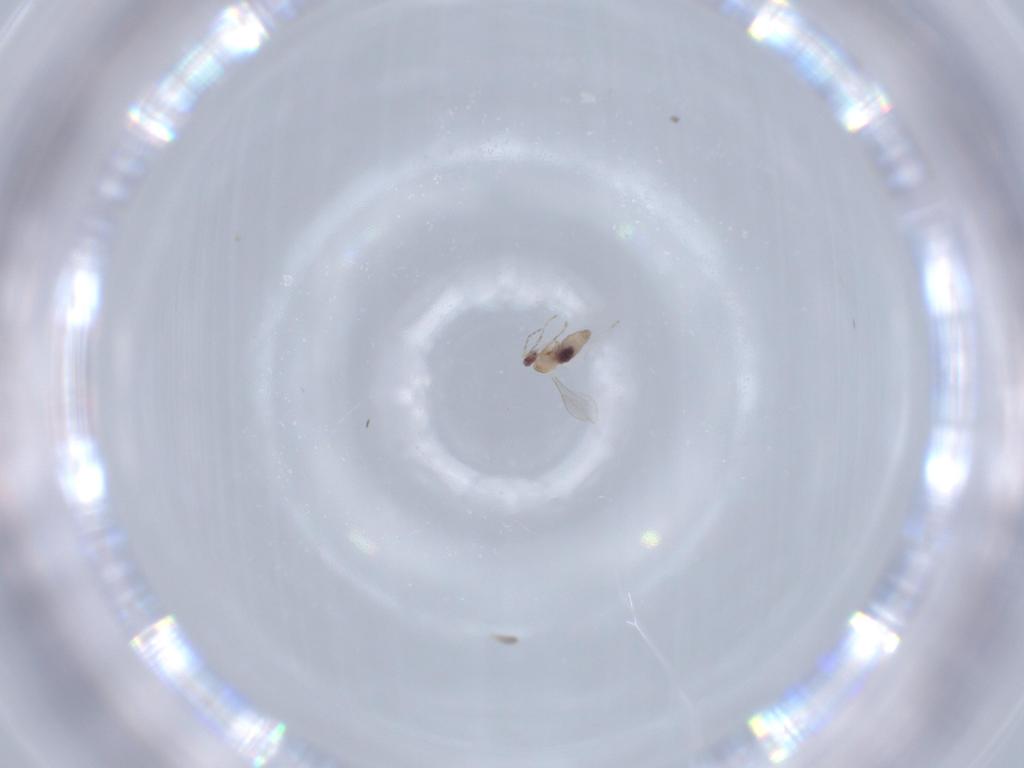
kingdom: Animalia
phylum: Arthropoda
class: Insecta
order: Diptera
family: Cecidomyiidae
